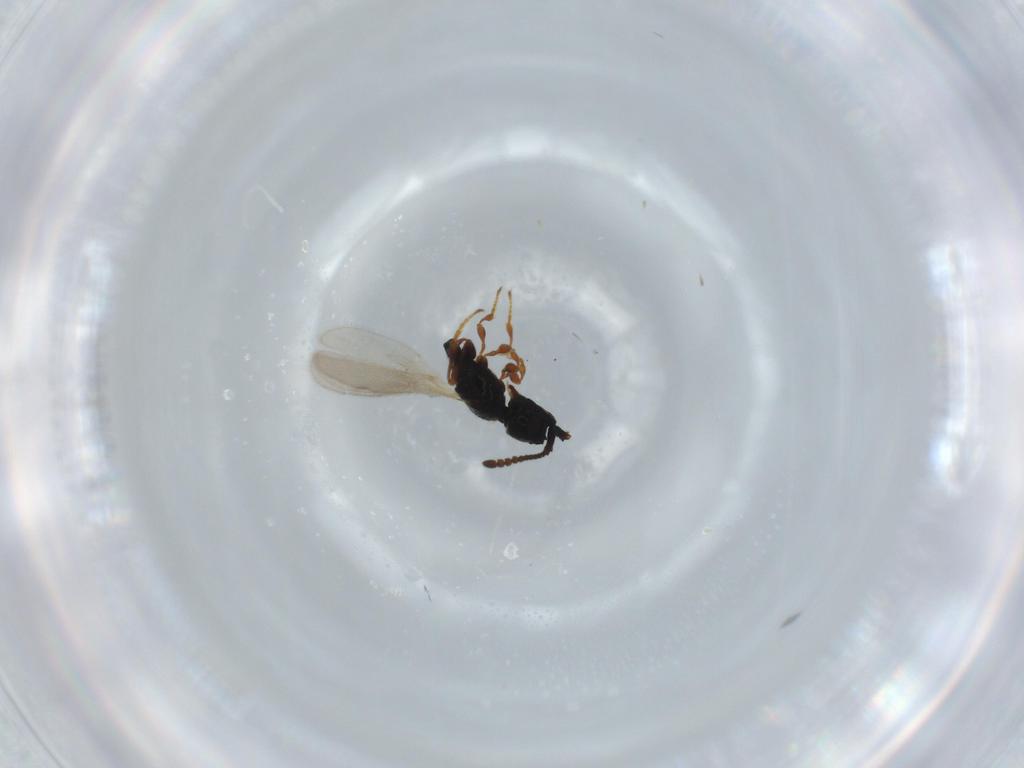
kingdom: Animalia
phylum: Arthropoda
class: Insecta
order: Hymenoptera
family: Diapriidae
